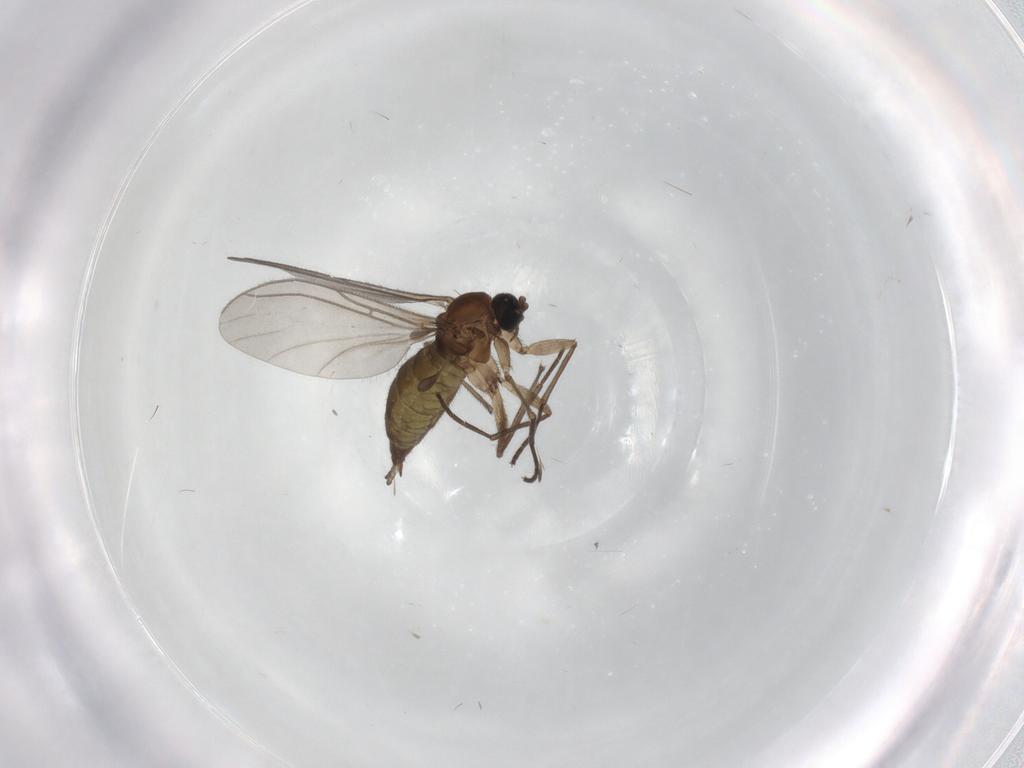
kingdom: Animalia
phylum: Arthropoda
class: Insecta
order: Diptera
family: Sciaridae
